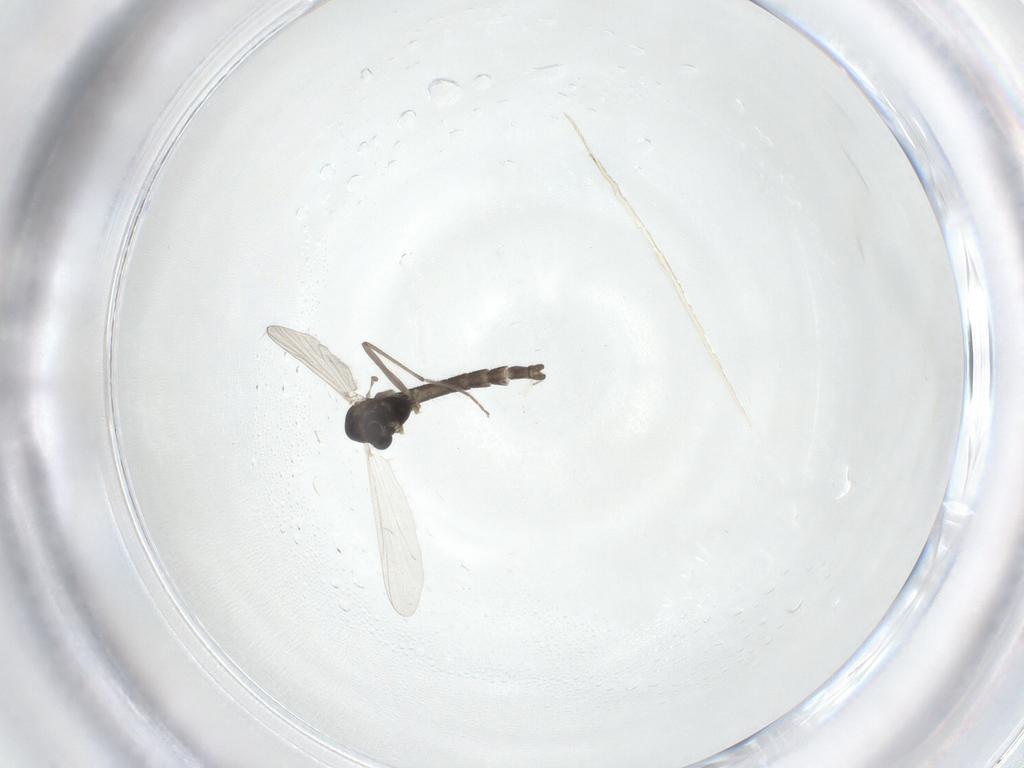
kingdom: Animalia
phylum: Arthropoda
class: Insecta
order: Diptera
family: Chironomidae
